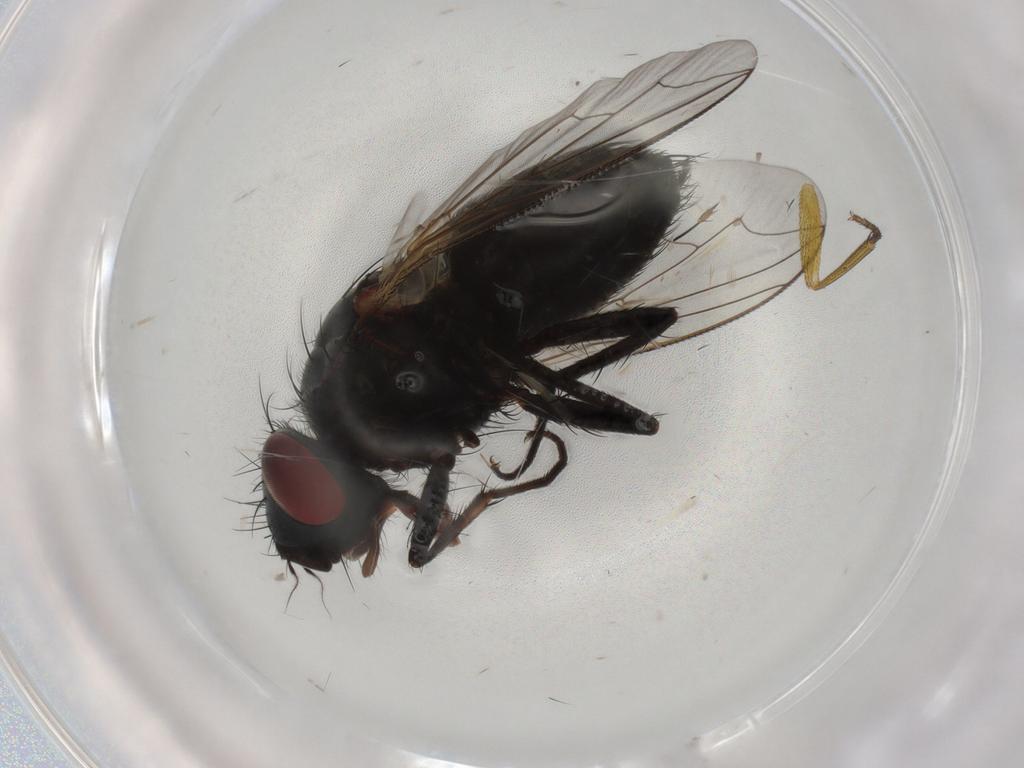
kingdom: Animalia
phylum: Arthropoda
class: Insecta
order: Diptera
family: Sarcophagidae
